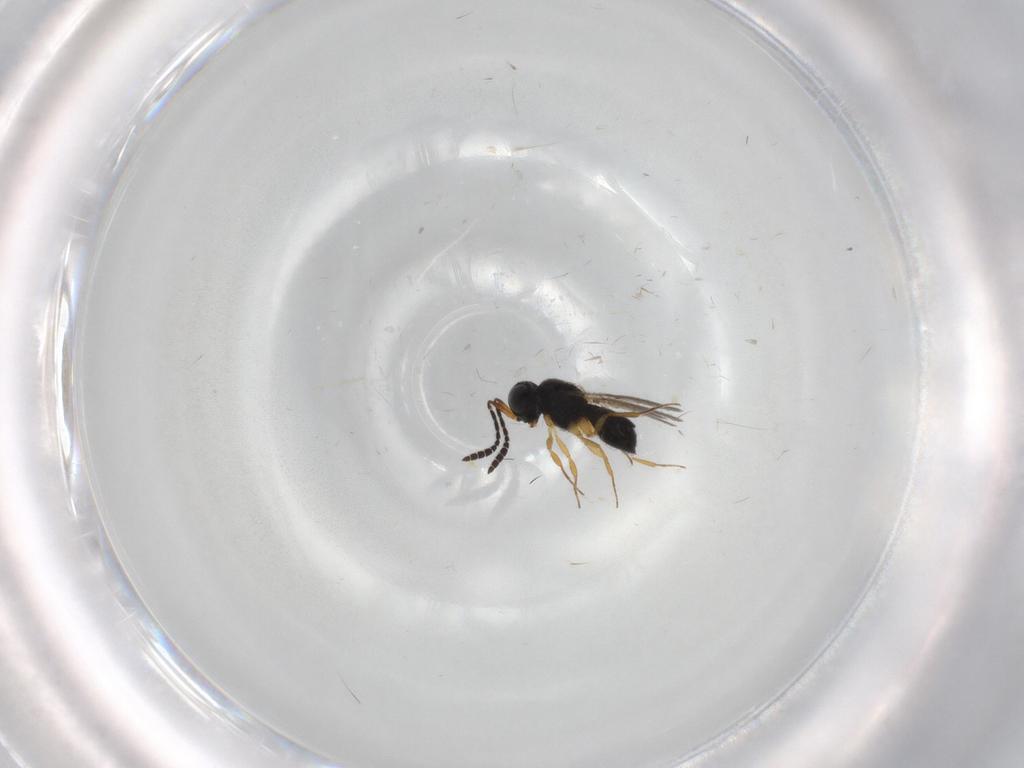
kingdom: Animalia
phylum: Arthropoda
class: Insecta
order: Hymenoptera
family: Scelionidae
